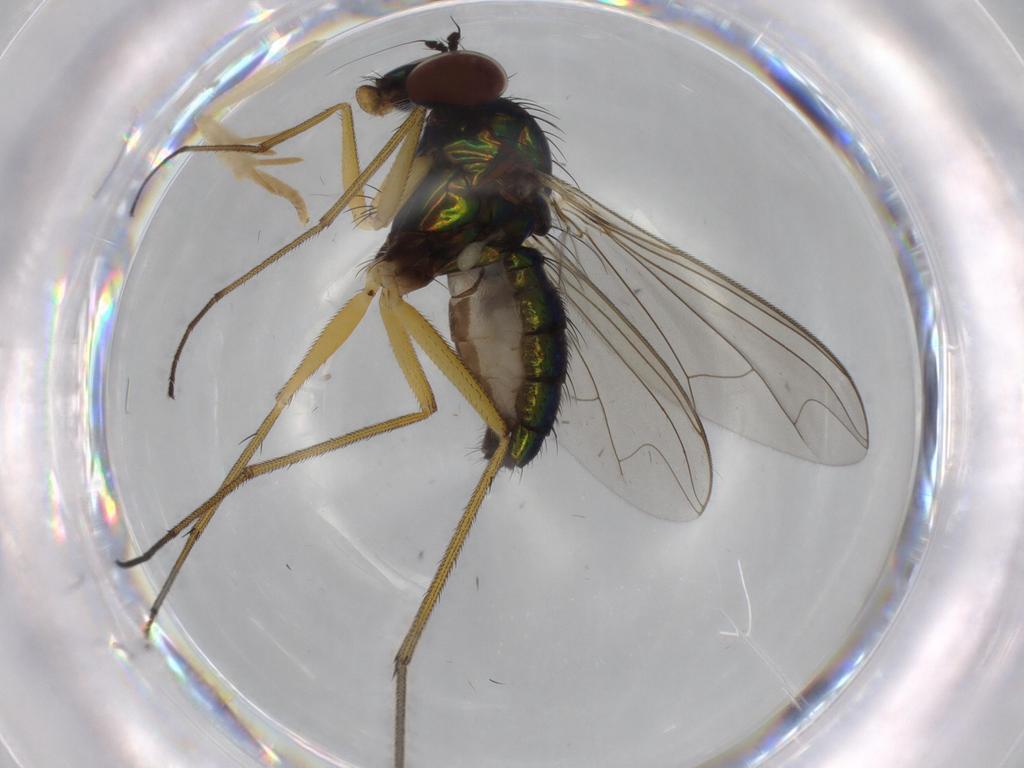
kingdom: Animalia
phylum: Arthropoda
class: Insecta
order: Diptera
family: Dolichopodidae
